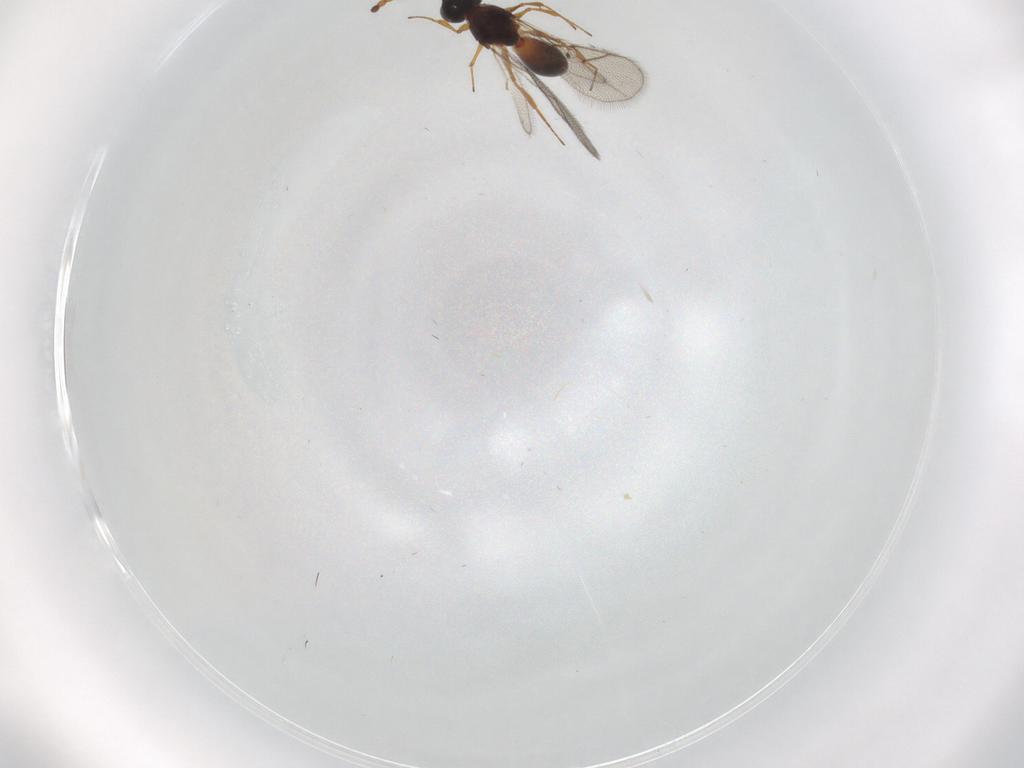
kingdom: Animalia
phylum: Arthropoda
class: Insecta
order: Hymenoptera
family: Figitidae
